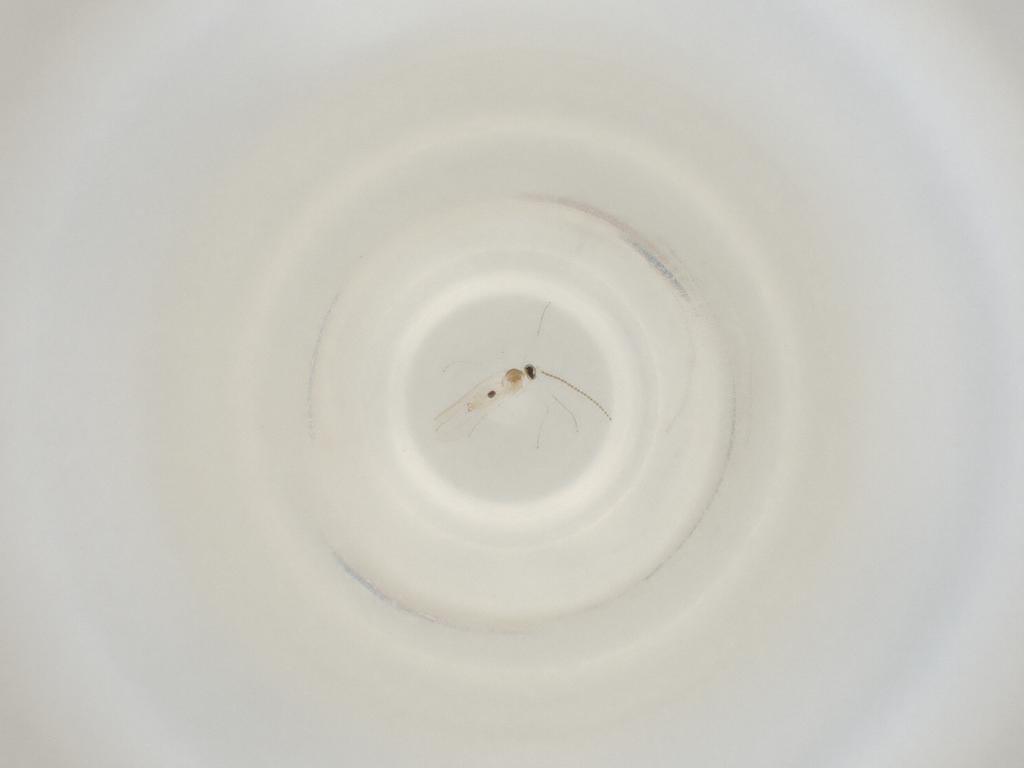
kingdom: Animalia
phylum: Arthropoda
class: Insecta
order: Diptera
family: Cecidomyiidae
